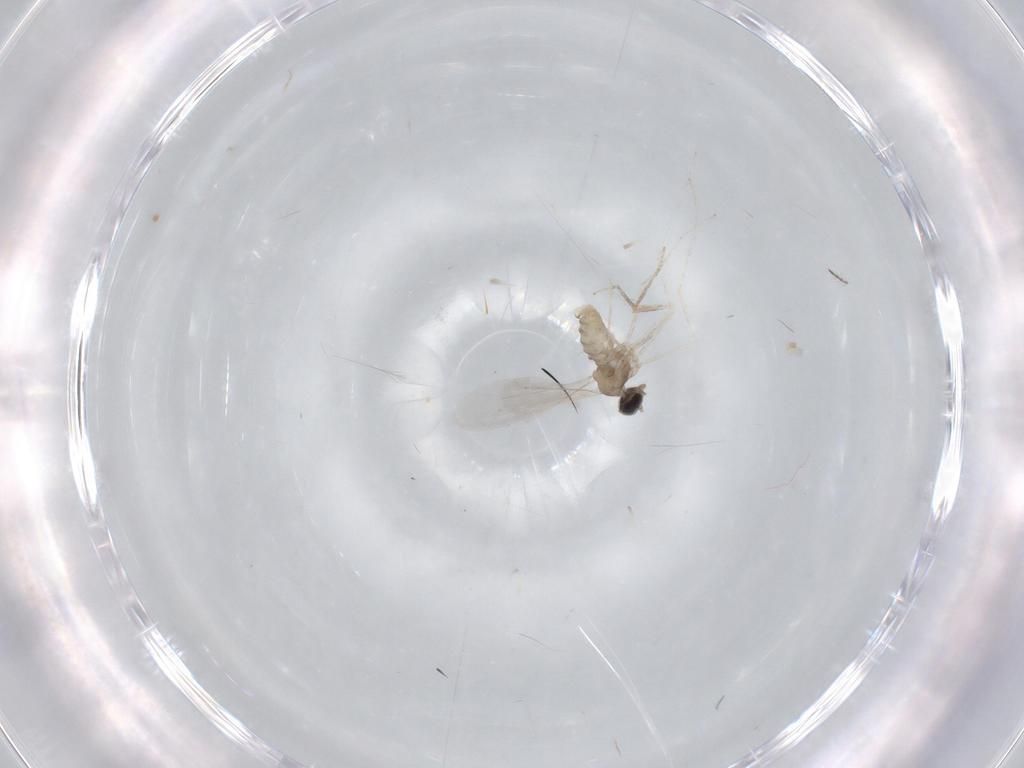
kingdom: Animalia
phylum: Arthropoda
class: Insecta
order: Diptera
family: Cecidomyiidae
